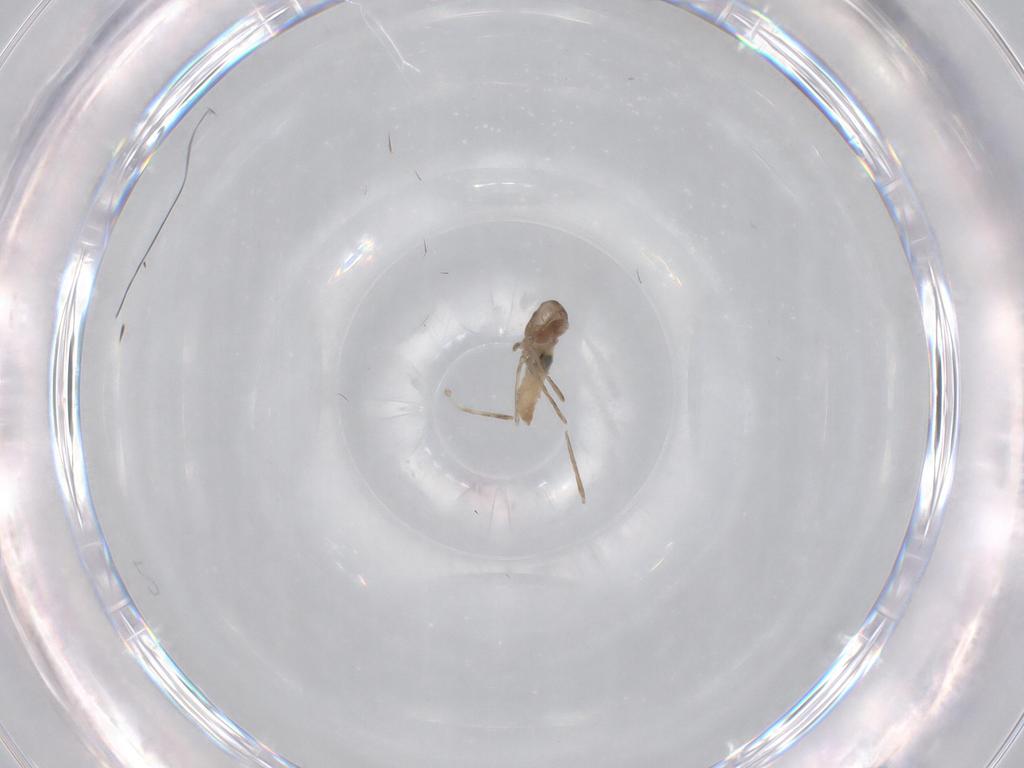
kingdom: Animalia
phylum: Arthropoda
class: Insecta
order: Diptera
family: Cecidomyiidae
